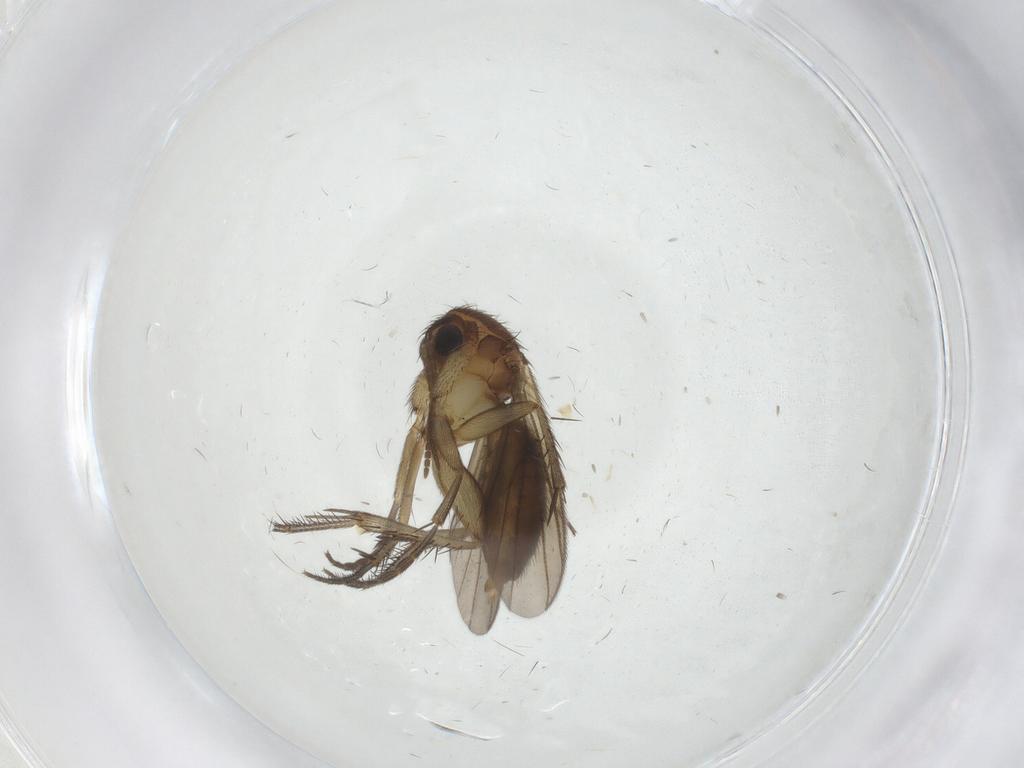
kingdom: Animalia
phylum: Arthropoda
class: Insecta
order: Diptera
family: Mycetophilidae
